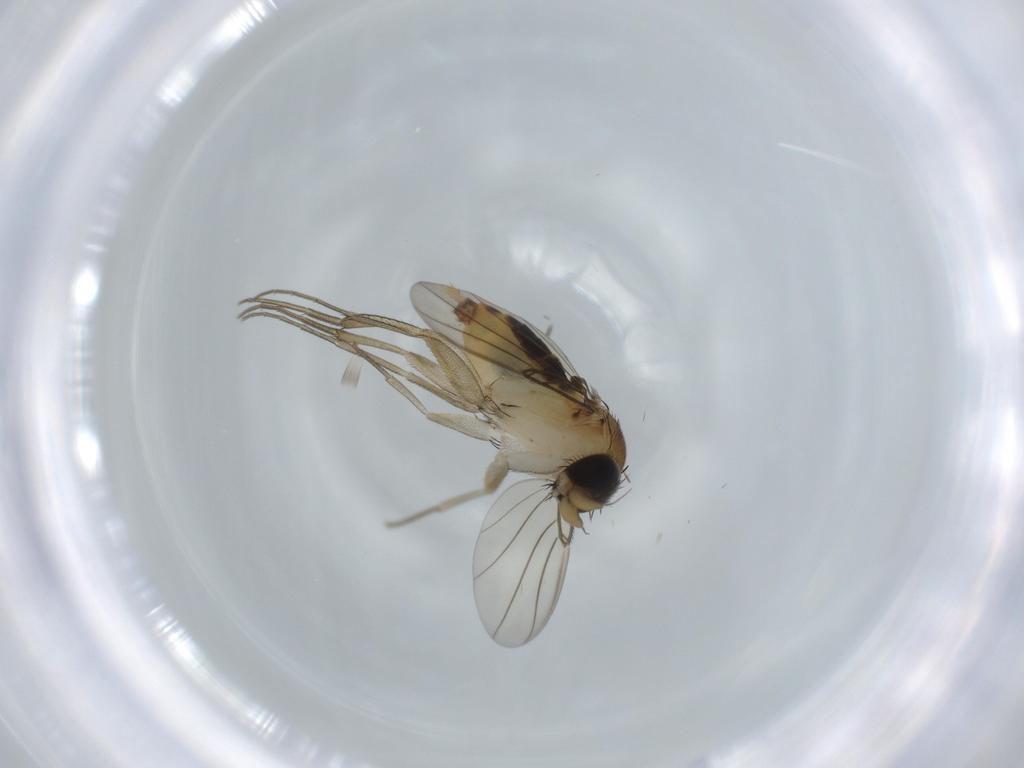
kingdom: Animalia
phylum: Arthropoda
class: Insecta
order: Diptera
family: Phoridae
